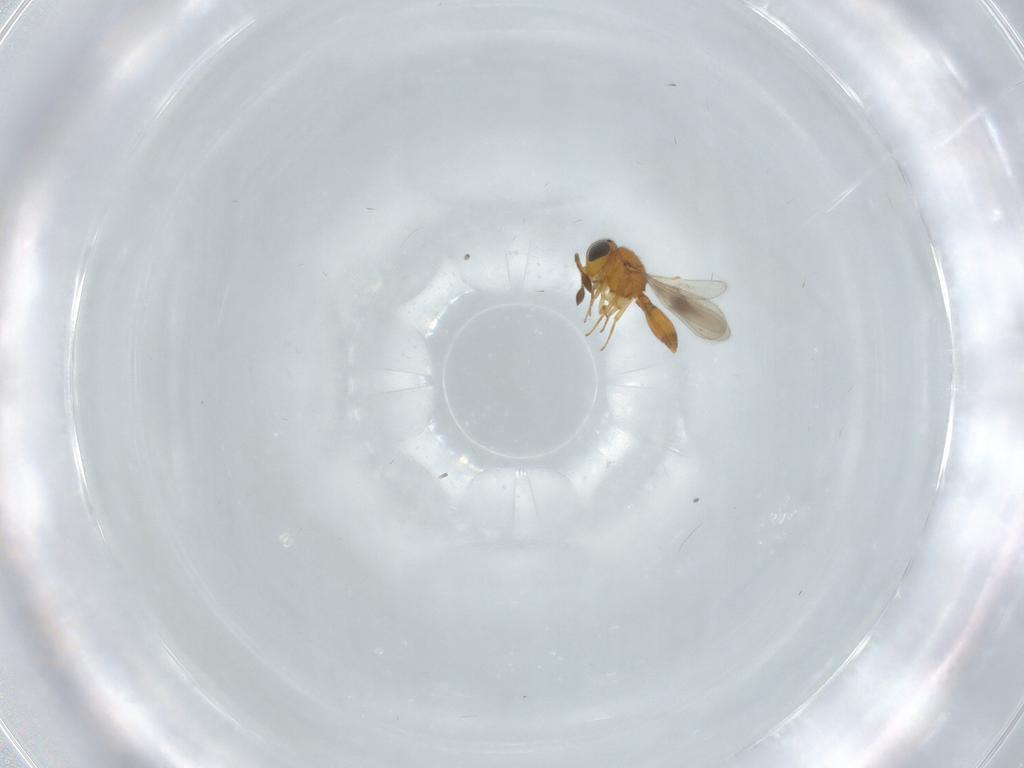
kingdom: Animalia
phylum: Arthropoda
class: Insecta
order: Hymenoptera
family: Scelionidae
